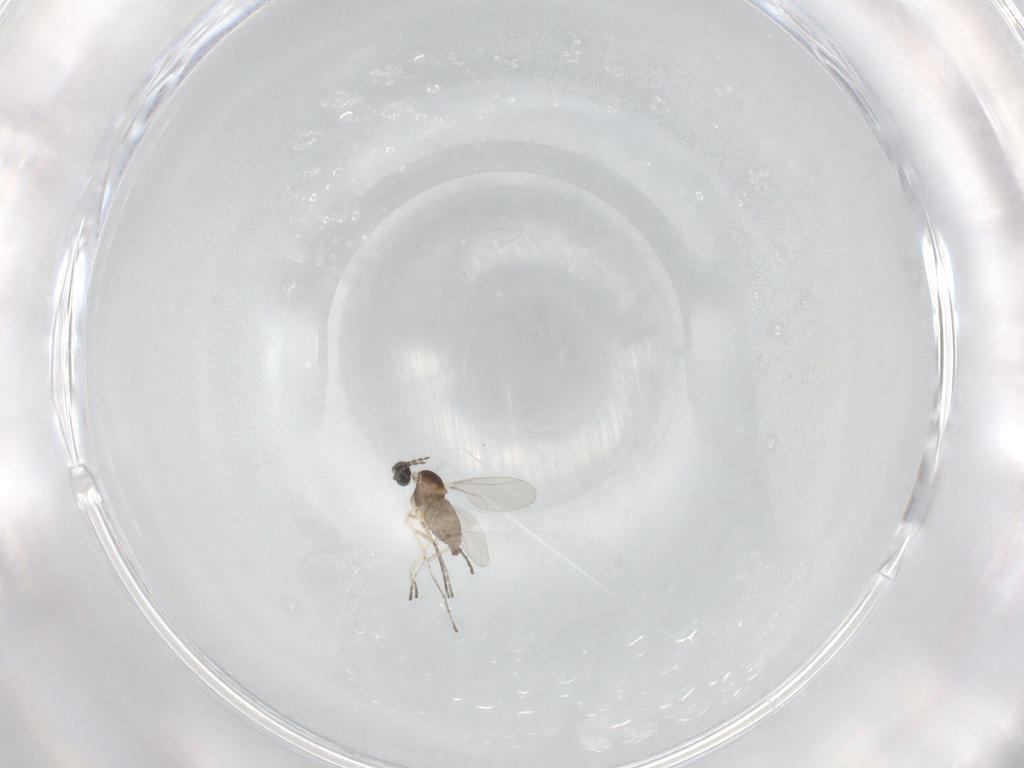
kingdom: Animalia
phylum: Arthropoda
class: Insecta
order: Diptera
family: Cecidomyiidae
